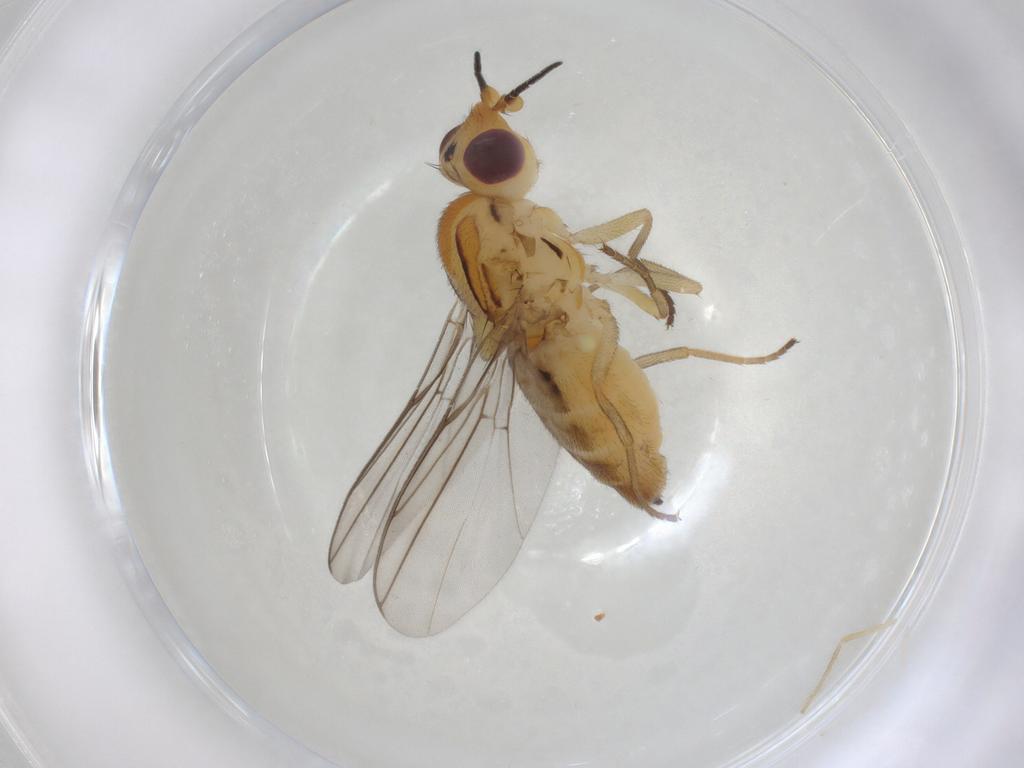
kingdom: Animalia
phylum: Arthropoda
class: Insecta
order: Diptera
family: Chloropidae
